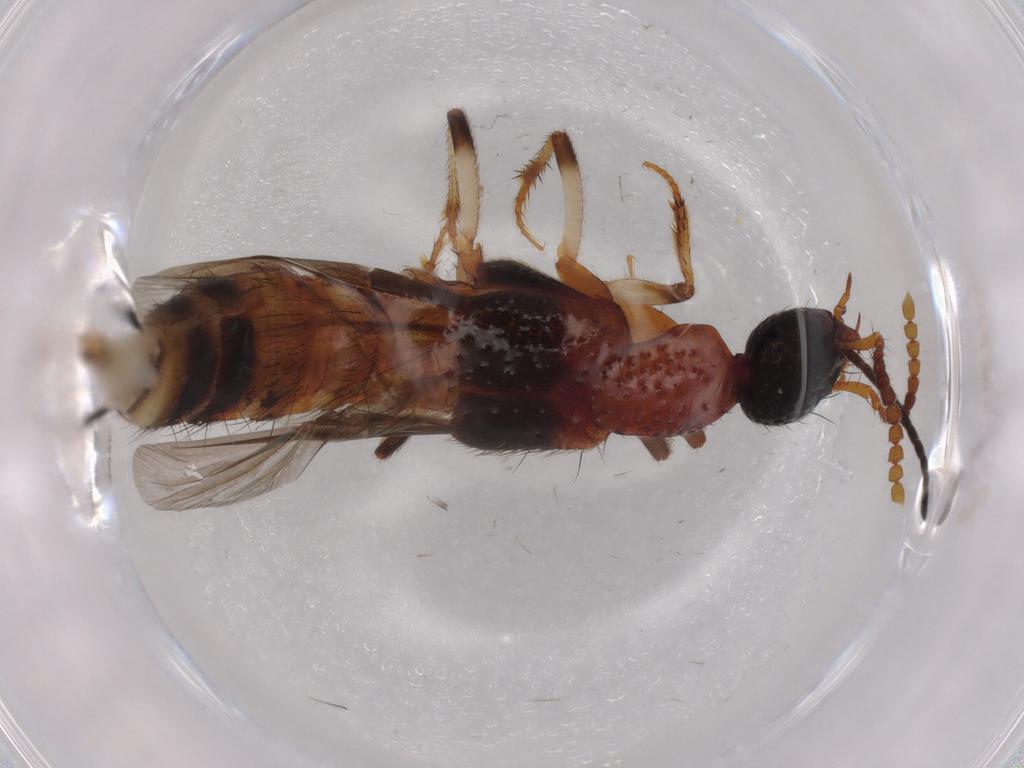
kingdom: Animalia
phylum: Arthropoda
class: Insecta
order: Coleoptera
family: Staphylinidae
